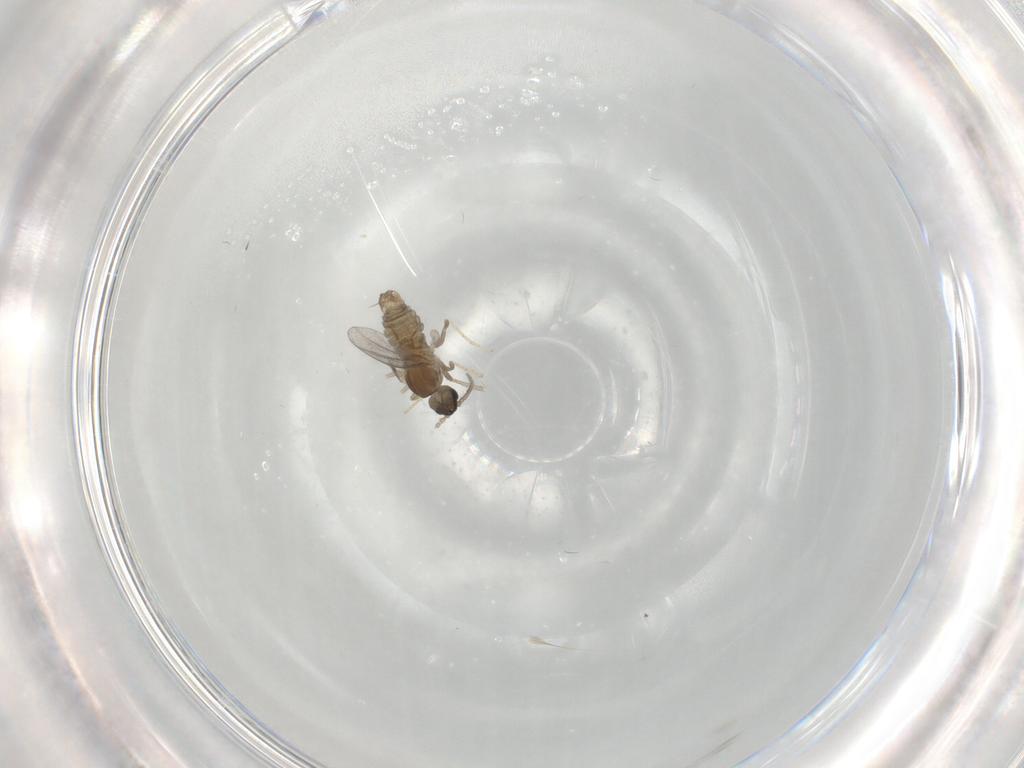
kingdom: Animalia
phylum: Arthropoda
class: Insecta
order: Diptera
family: Cecidomyiidae
